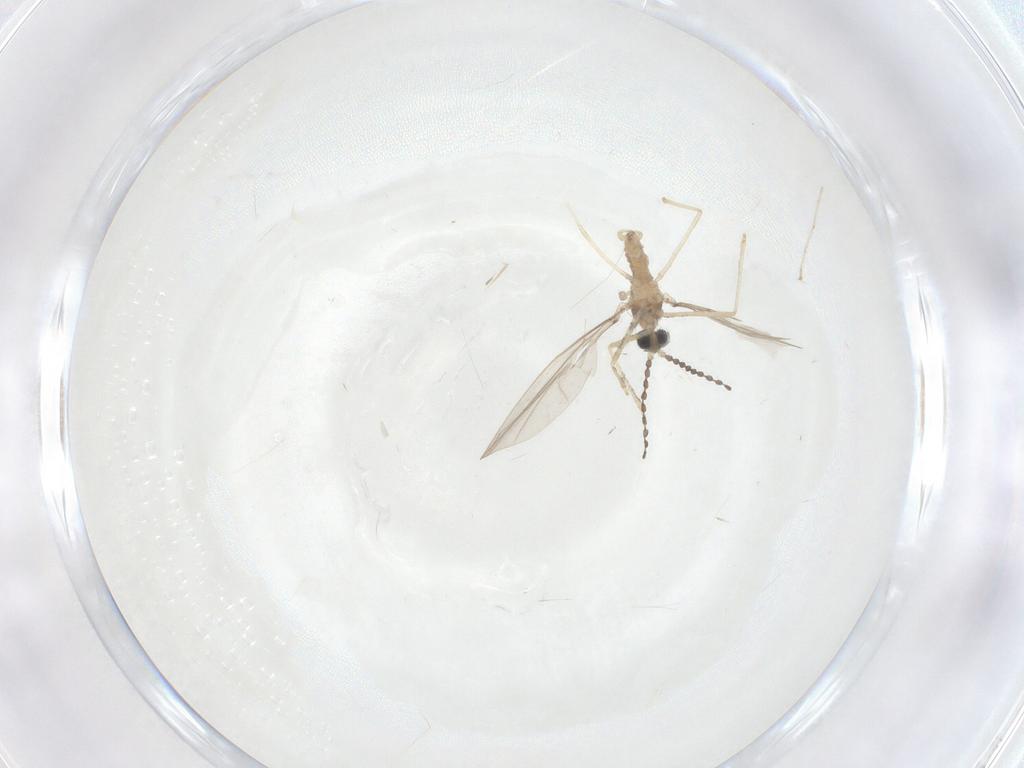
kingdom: Animalia
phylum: Arthropoda
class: Insecta
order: Diptera
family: Cecidomyiidae
